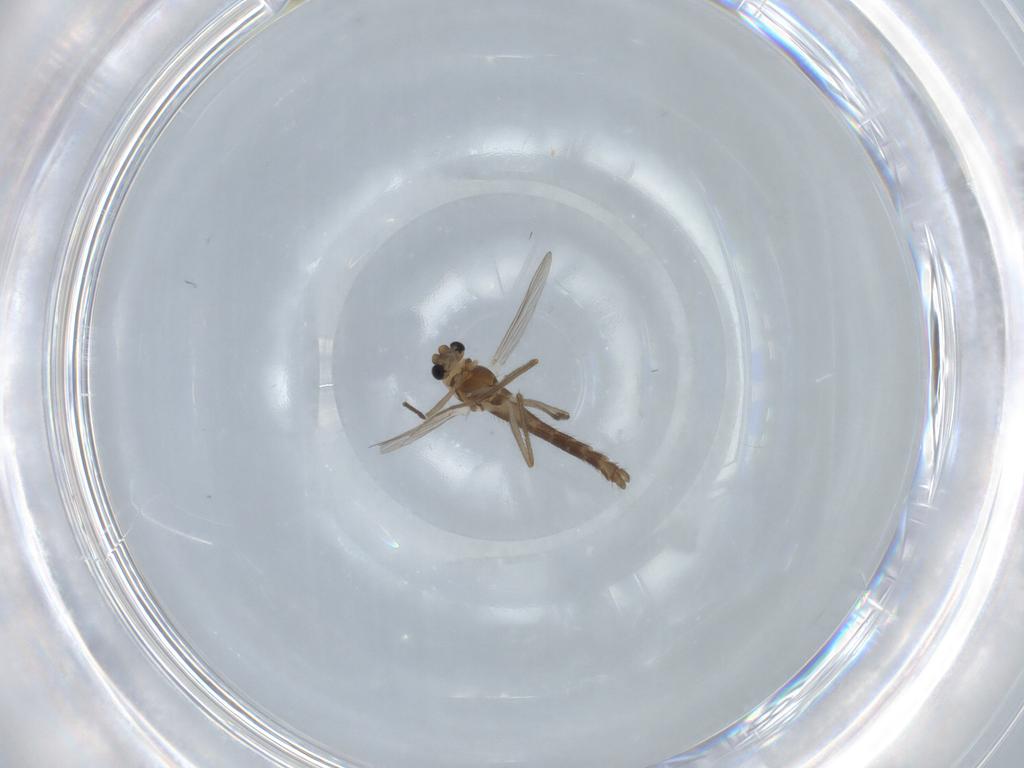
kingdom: Animalia
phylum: Arthropoda
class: Insecta
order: Diptera
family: Chironomidae
